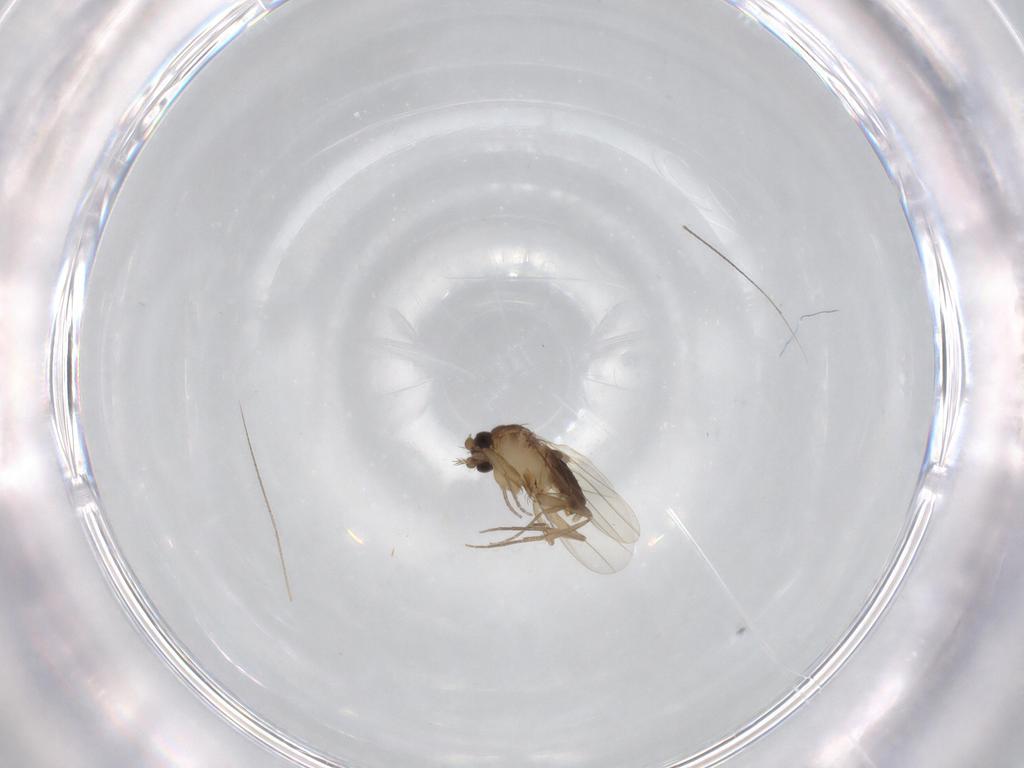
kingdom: Animalia
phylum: Arthropoda
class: Insecta
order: Diptera
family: Phoridae
